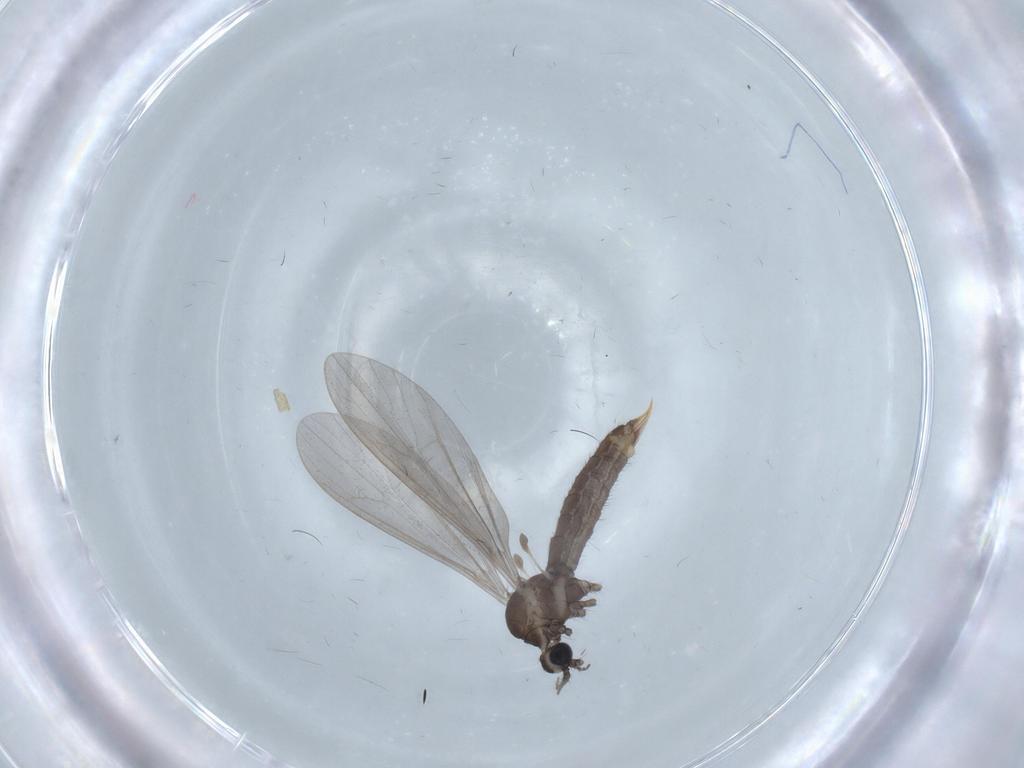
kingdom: Animalia
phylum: Arthropoda
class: Insecta
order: Diptera
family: Limoniidae
